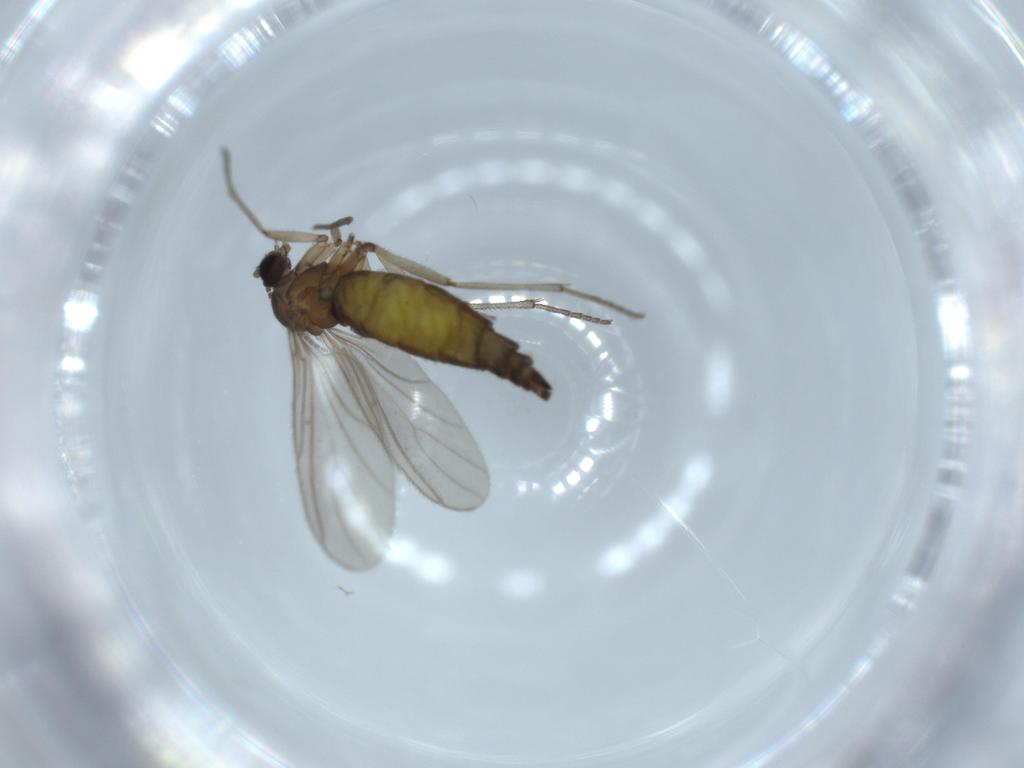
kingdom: Animalia
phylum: Arthropoda
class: Insecta
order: Diptera
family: Sciaridae
